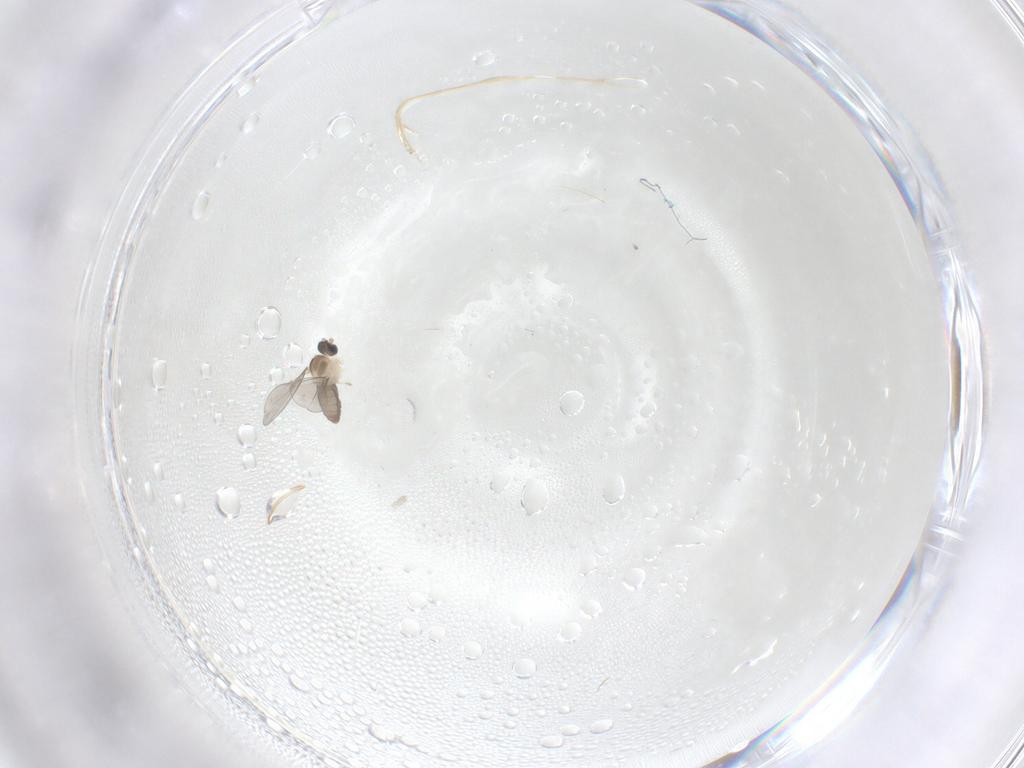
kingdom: Animalia
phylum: Arthropoda
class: Insecta
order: Diptera
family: Cecidomyiidae
